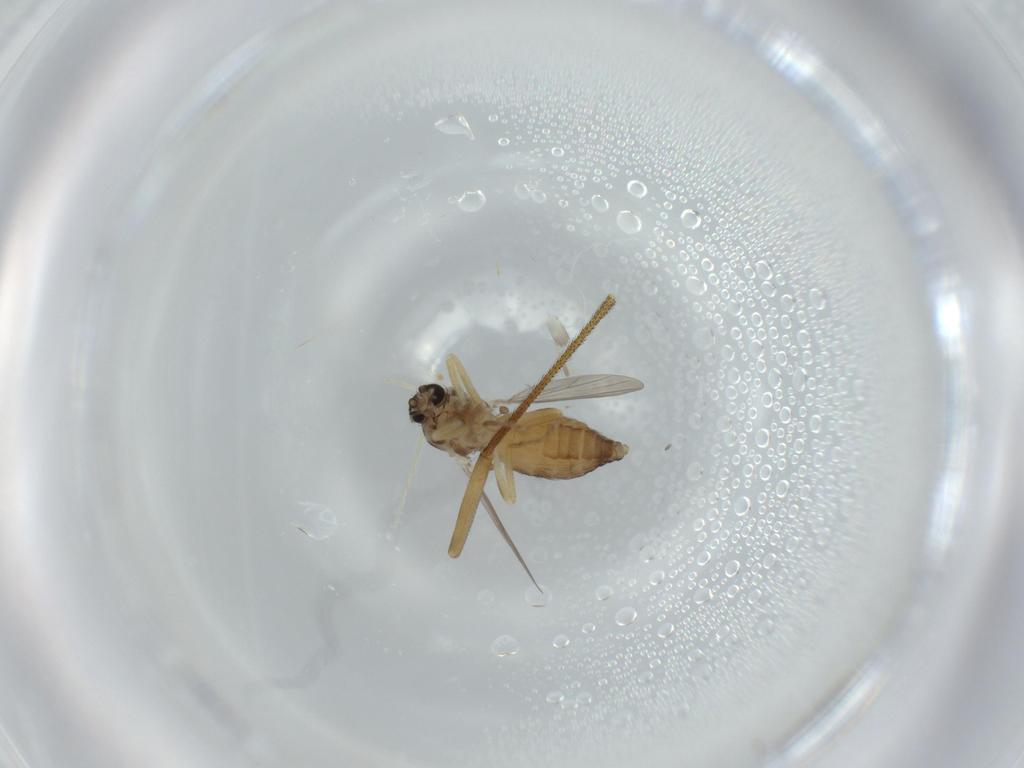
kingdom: Animalia
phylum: Arthropoda
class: Insecta
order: Diptera
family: Ceratopogonidae
